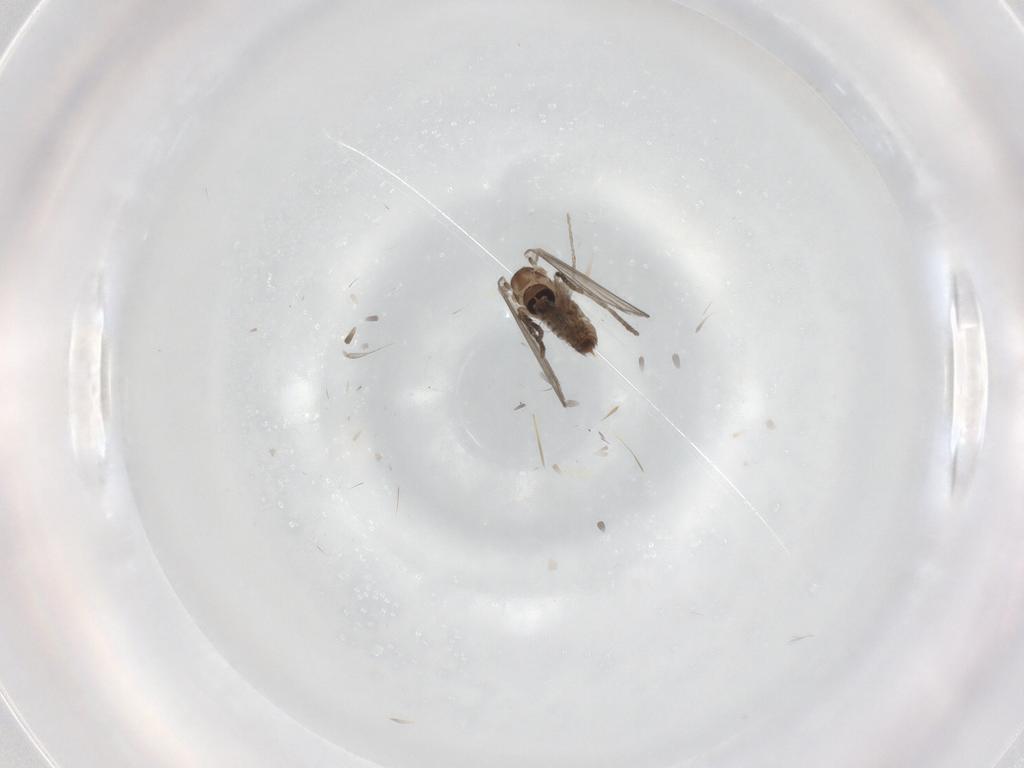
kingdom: Animalia
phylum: Arthropoda
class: Insecta
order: Diptera
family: Psychodidae
